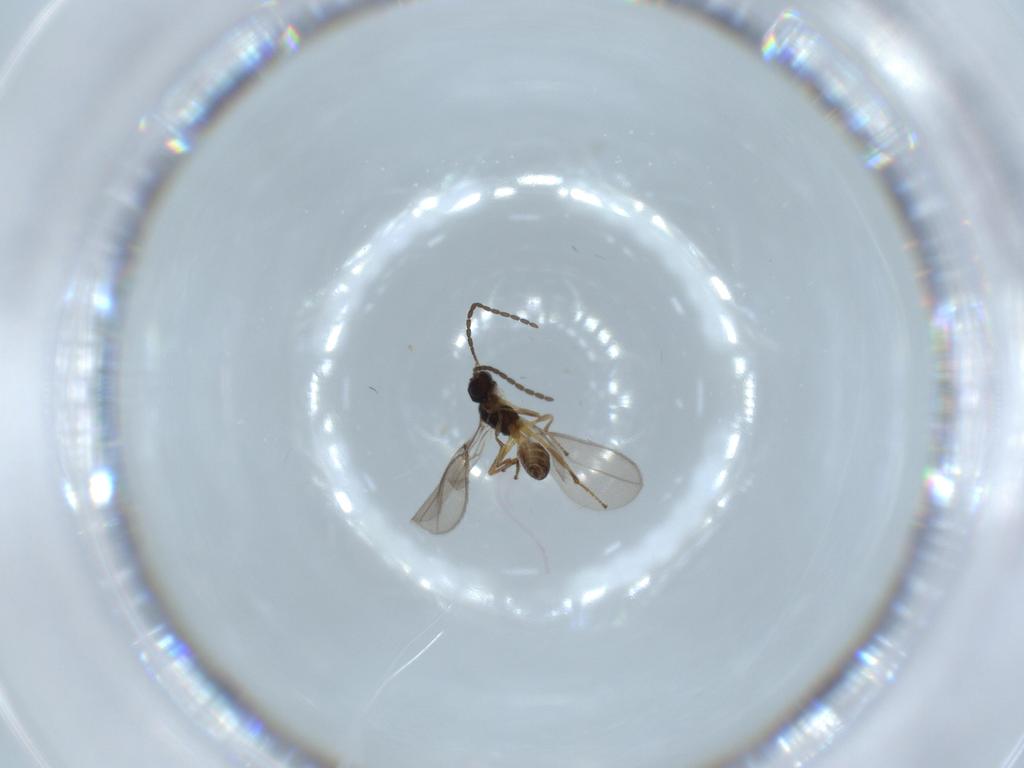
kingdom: Animalia
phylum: Arthropoda
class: Insecta
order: Hymenoptera
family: Braconidae
